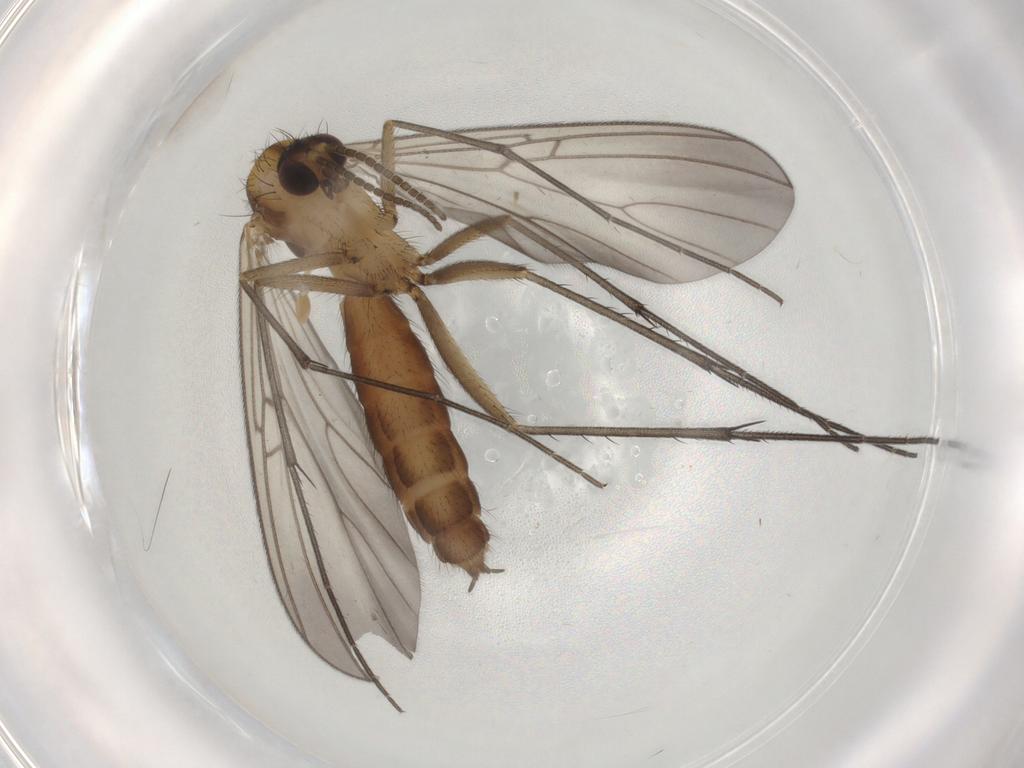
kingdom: Animalia
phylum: Arthropoda
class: Insecta
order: Diptera
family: Mycetophilidae
